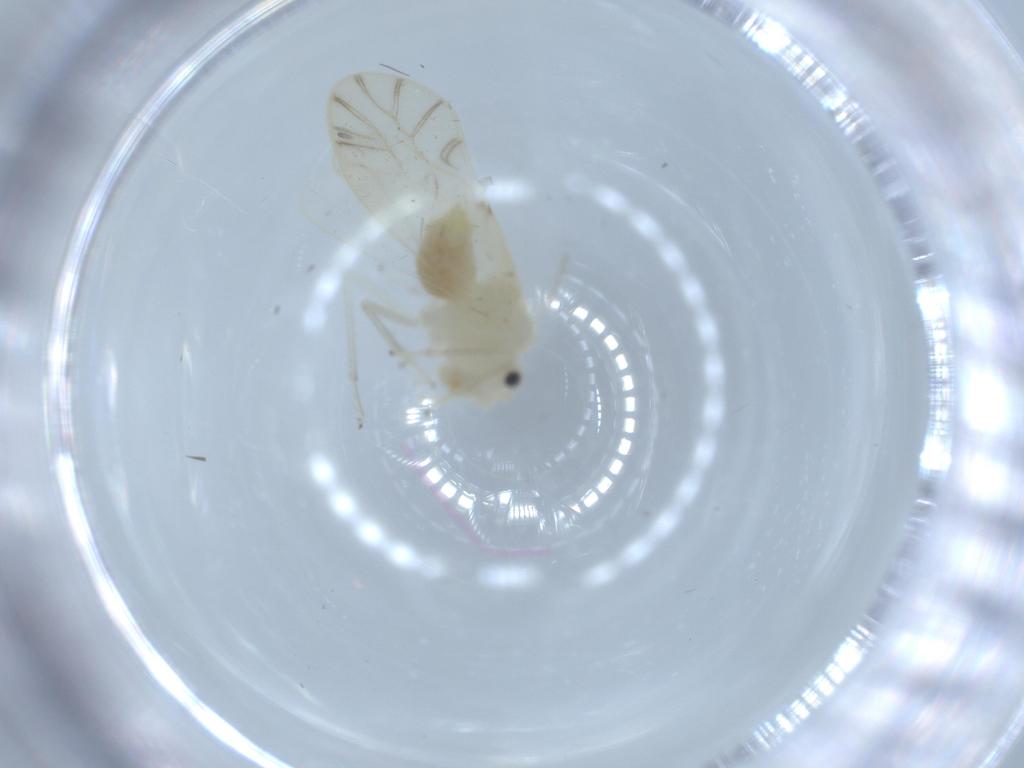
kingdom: Animalia
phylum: Arthropoda
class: Insecta
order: Psocodea
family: Caeciliusidae
